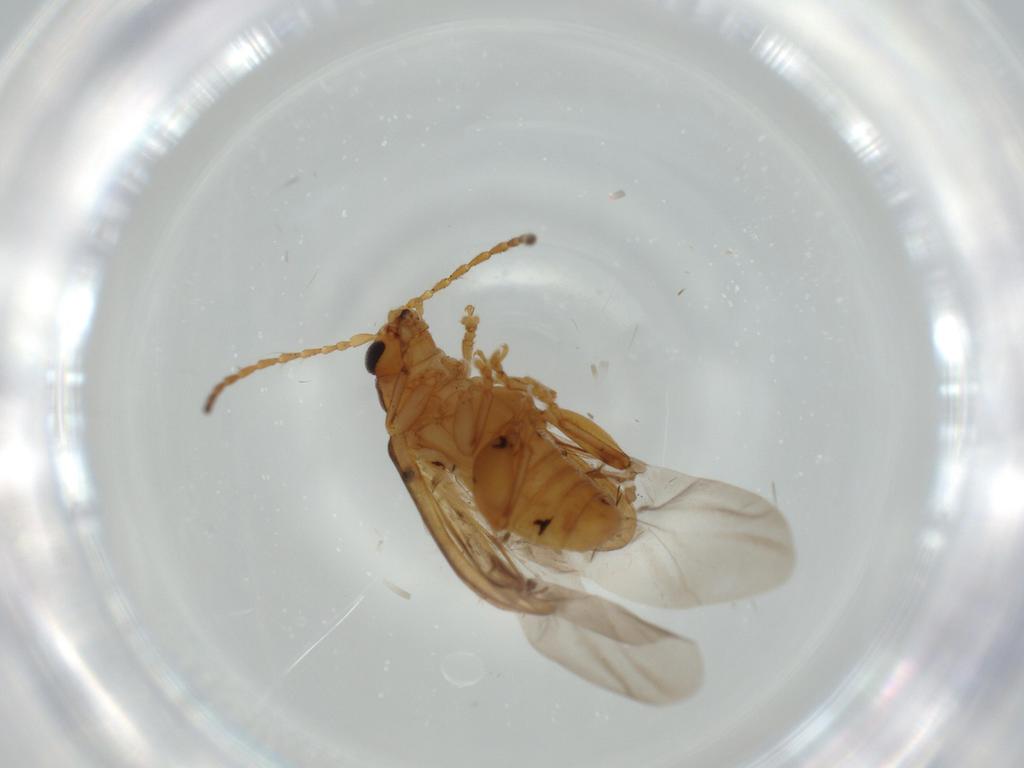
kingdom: Animalia
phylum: Arthropoda
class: Insecta
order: Coleoptera
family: Chrysomelidae
